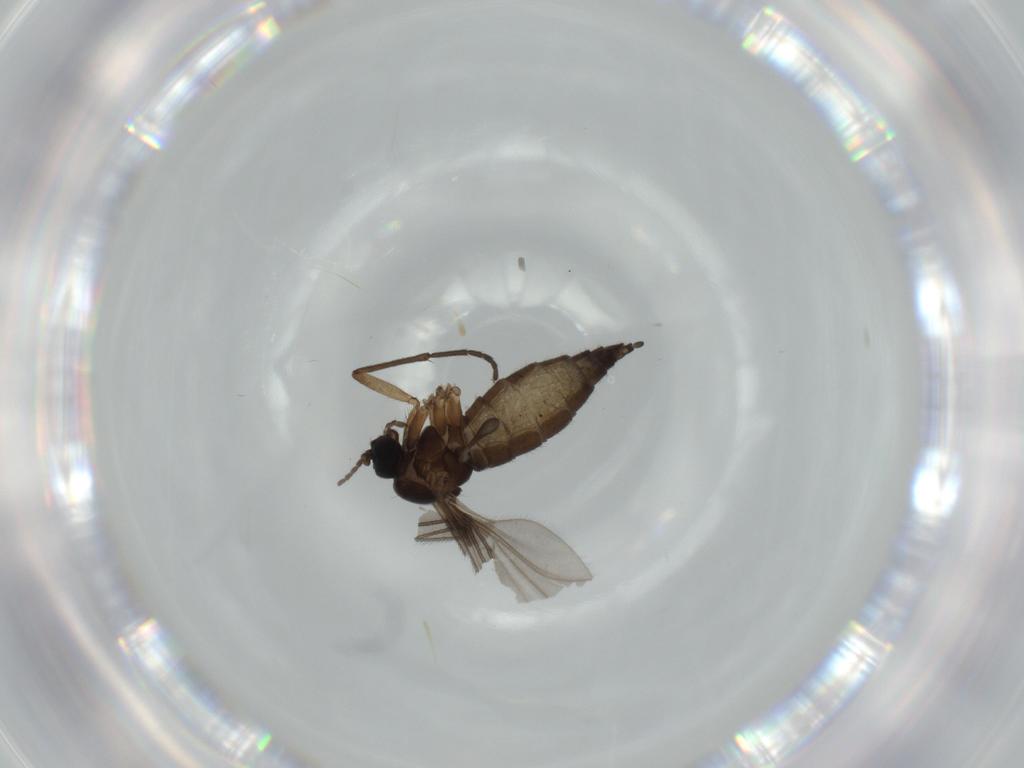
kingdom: Animalia
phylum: Arthropoda
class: Insecta
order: Diptera
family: Sciaridae
